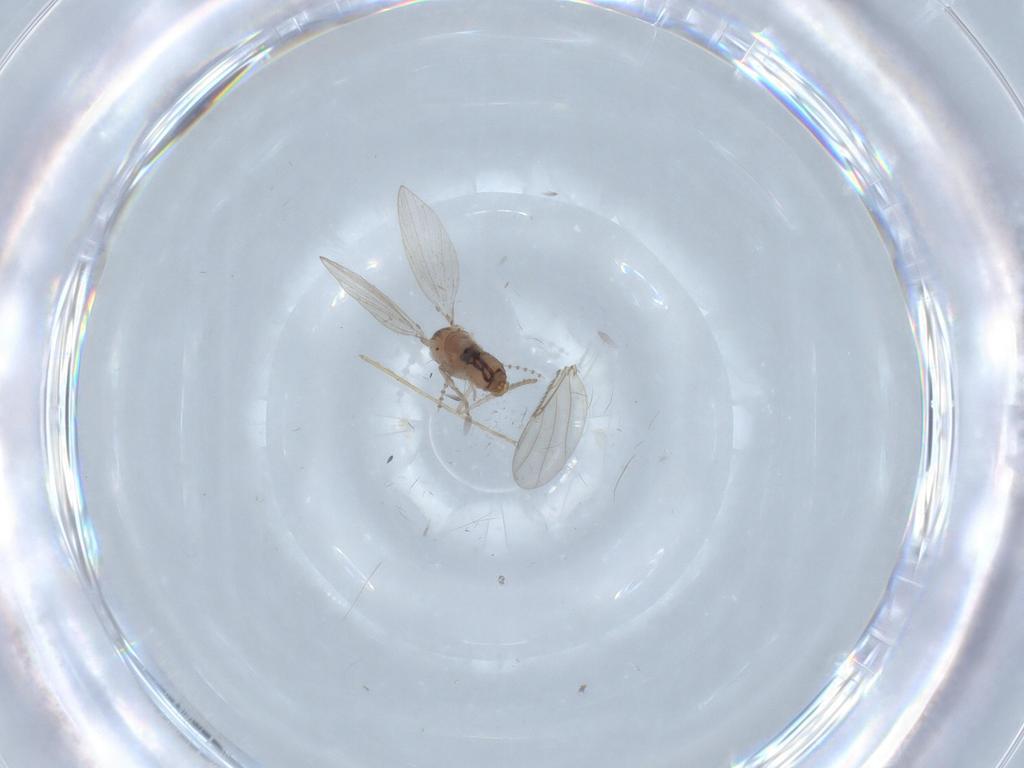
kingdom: Animalia
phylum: Arthropoda
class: Insecta
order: Diptera
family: Psychodidae
